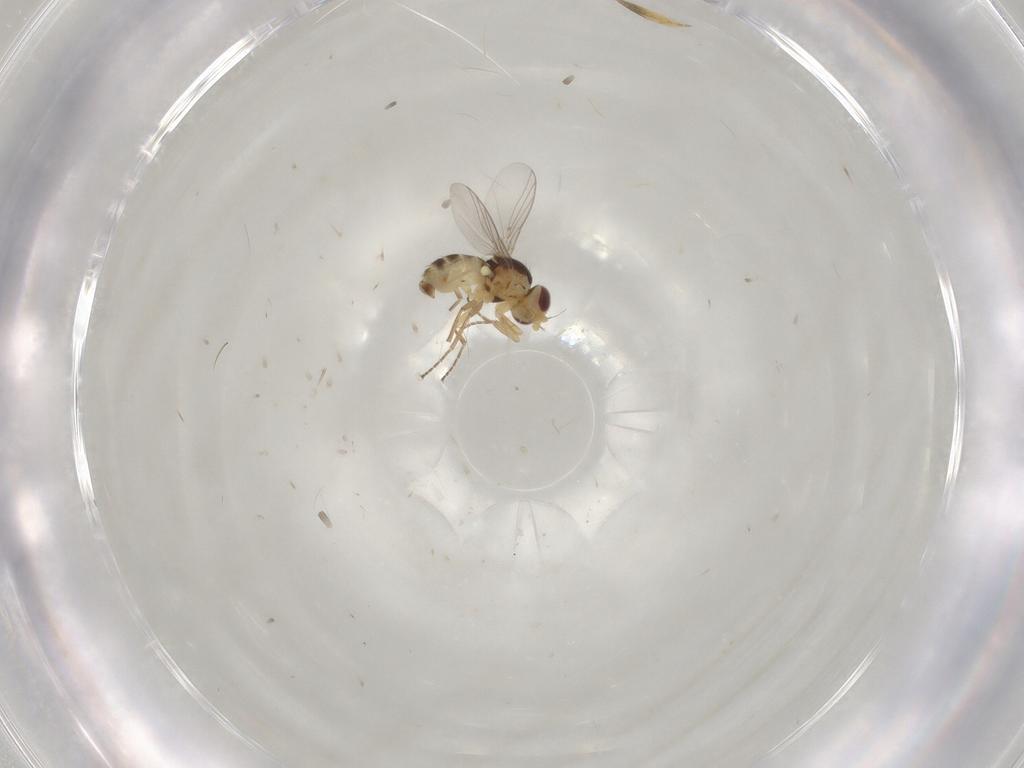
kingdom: Animalia
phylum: Arthropoda
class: Insecta
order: Diptera
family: Agromyzidae
